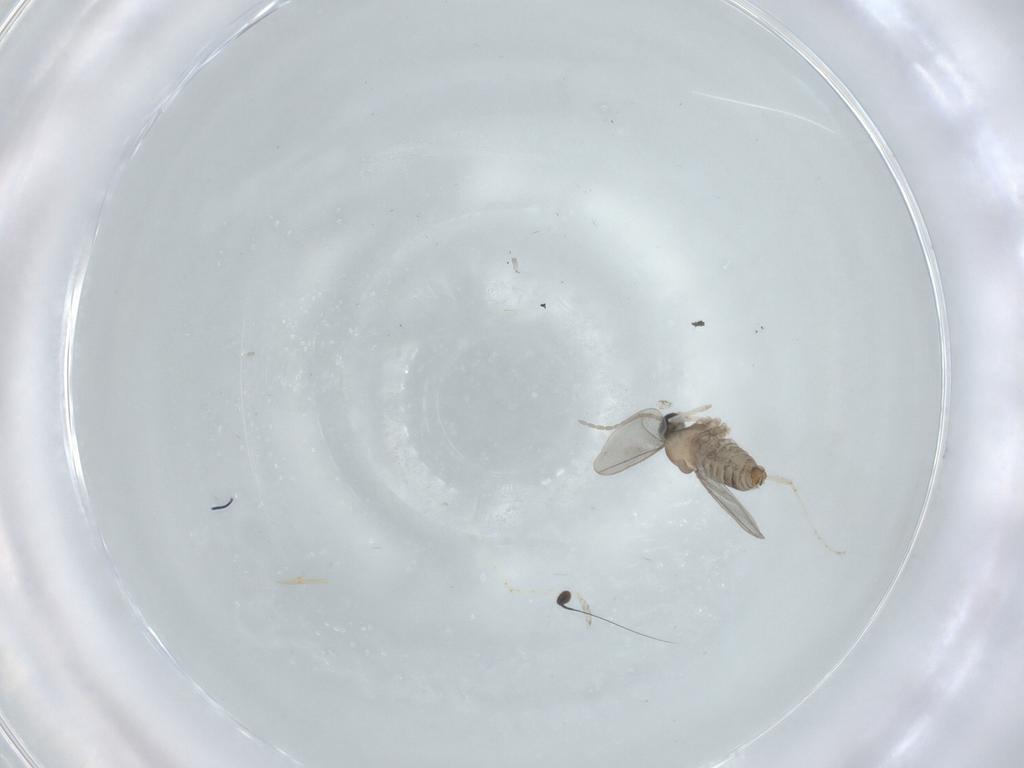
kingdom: Animalia
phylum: Arthropoda
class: Insecta
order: Diptera
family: Cecidomyiidae
